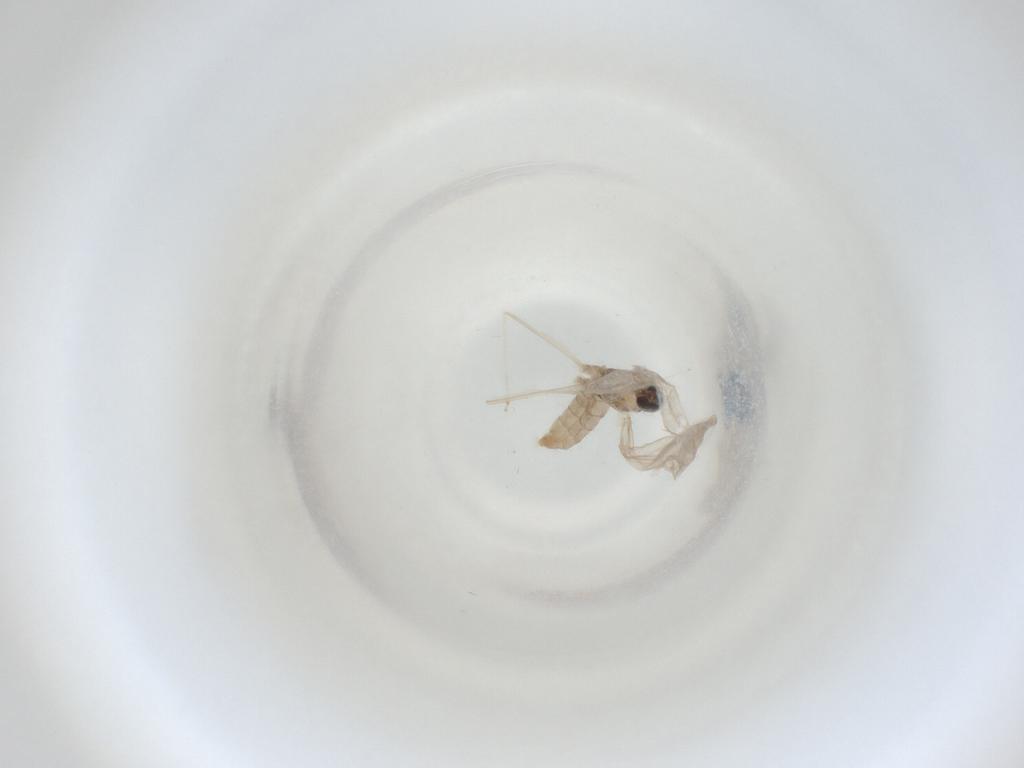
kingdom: Animalia
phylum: Arthropoda
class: Insecta
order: Diptera
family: Cecidomyiidae
